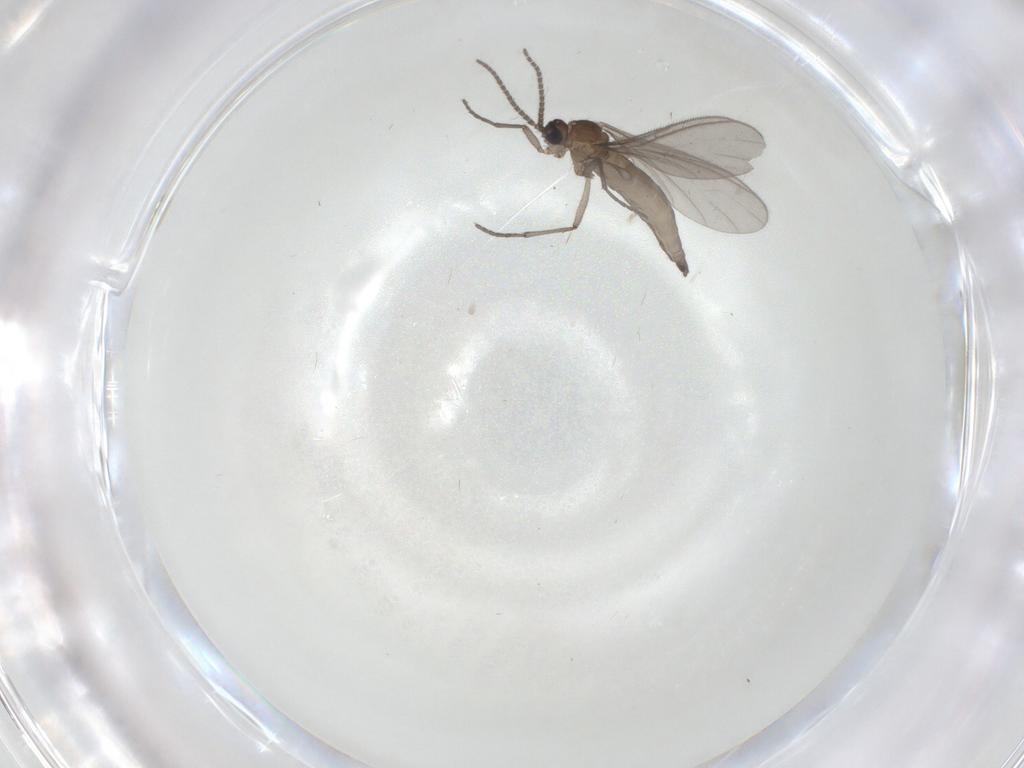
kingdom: Animalia
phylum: Arthropoda
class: Insecta
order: Diptera
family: Sciaridae
